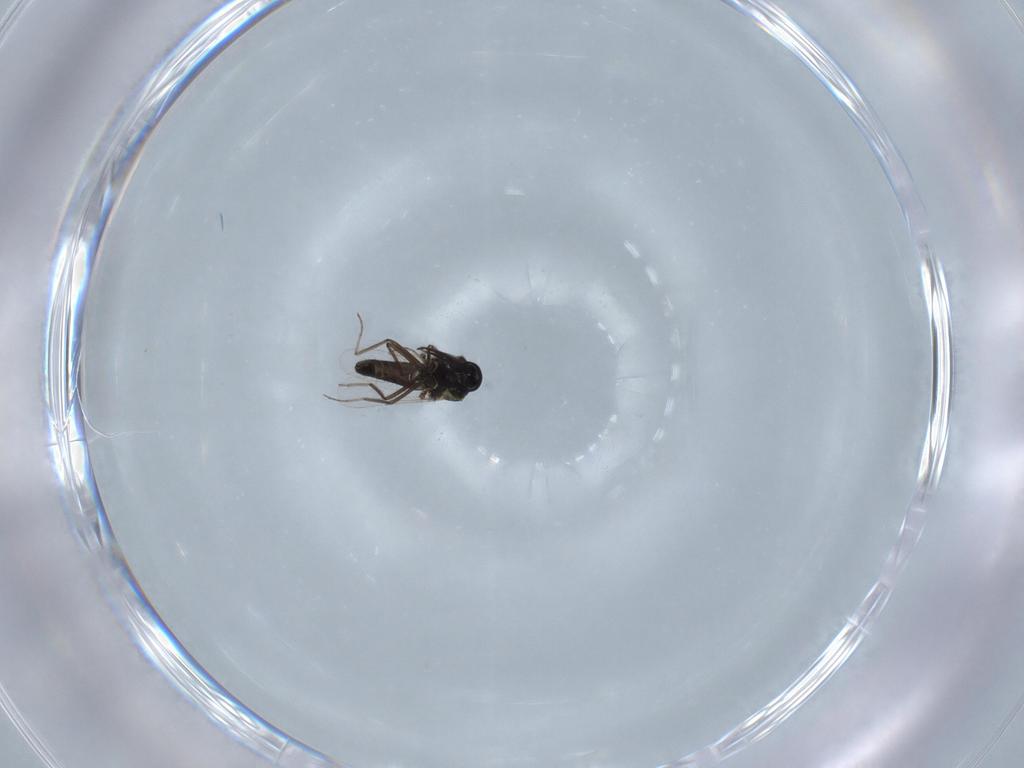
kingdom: Animalia
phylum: Arthropoda
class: Insecta
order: Diptera
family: Ceratopogonidae
